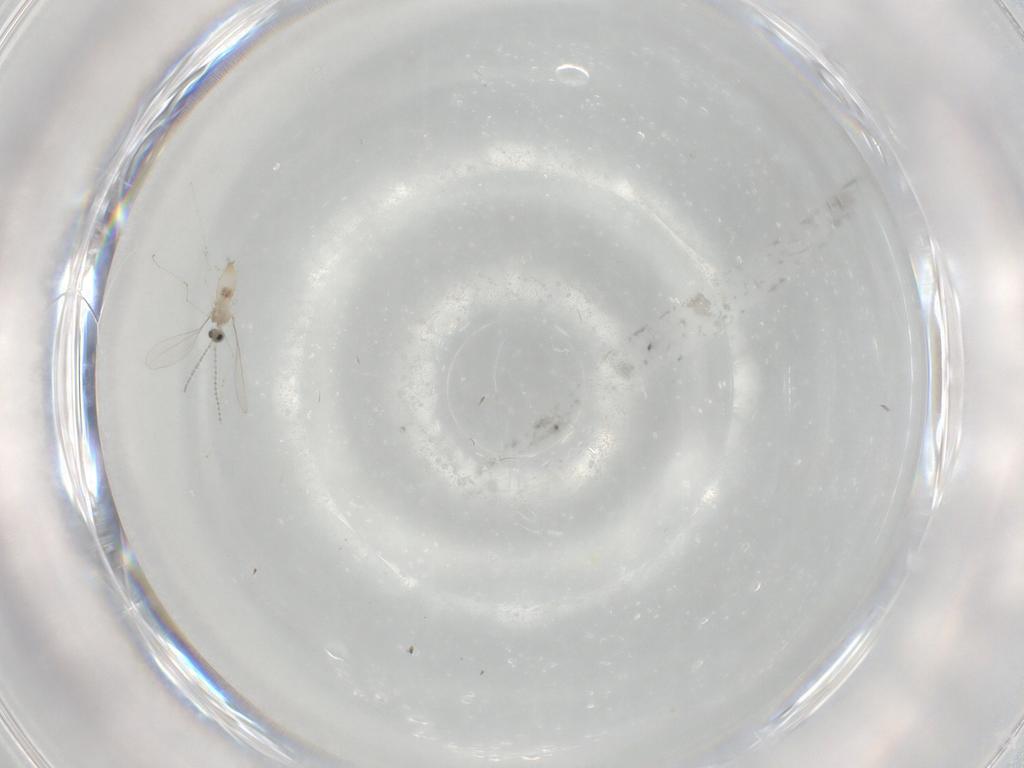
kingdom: Animalia
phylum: Arthropoda
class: Insecta
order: Diptera
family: Cecidomyiidae
